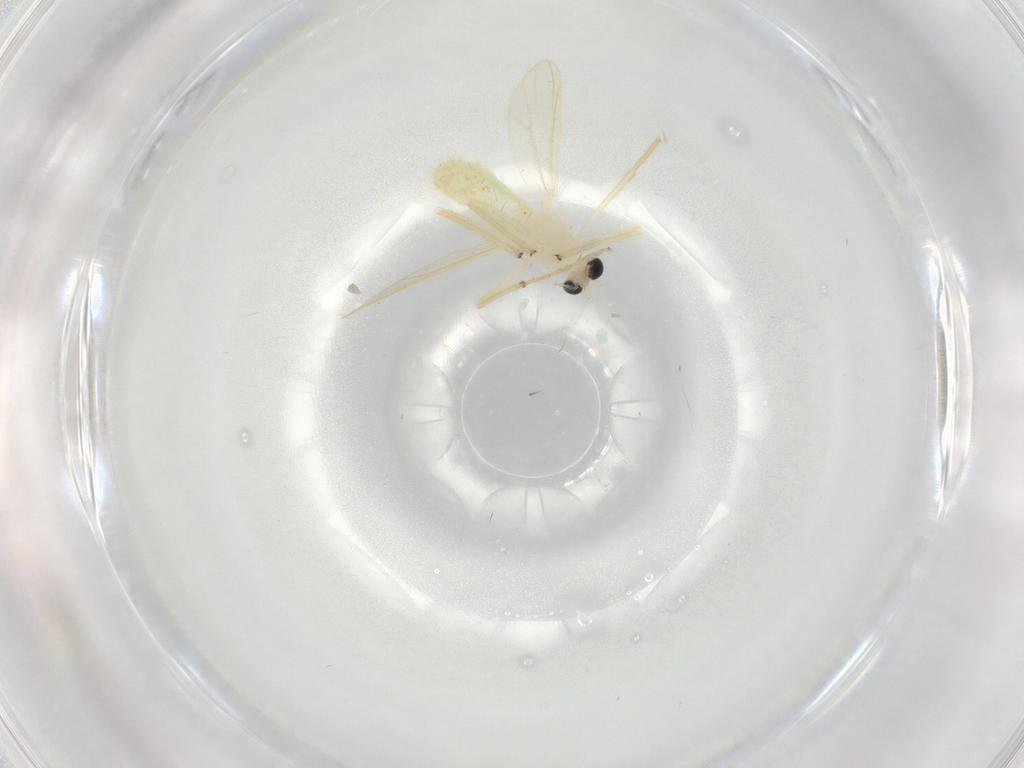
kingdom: Animalia
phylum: Arthropoda
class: Insecta
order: Diptera
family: Chironomidae
